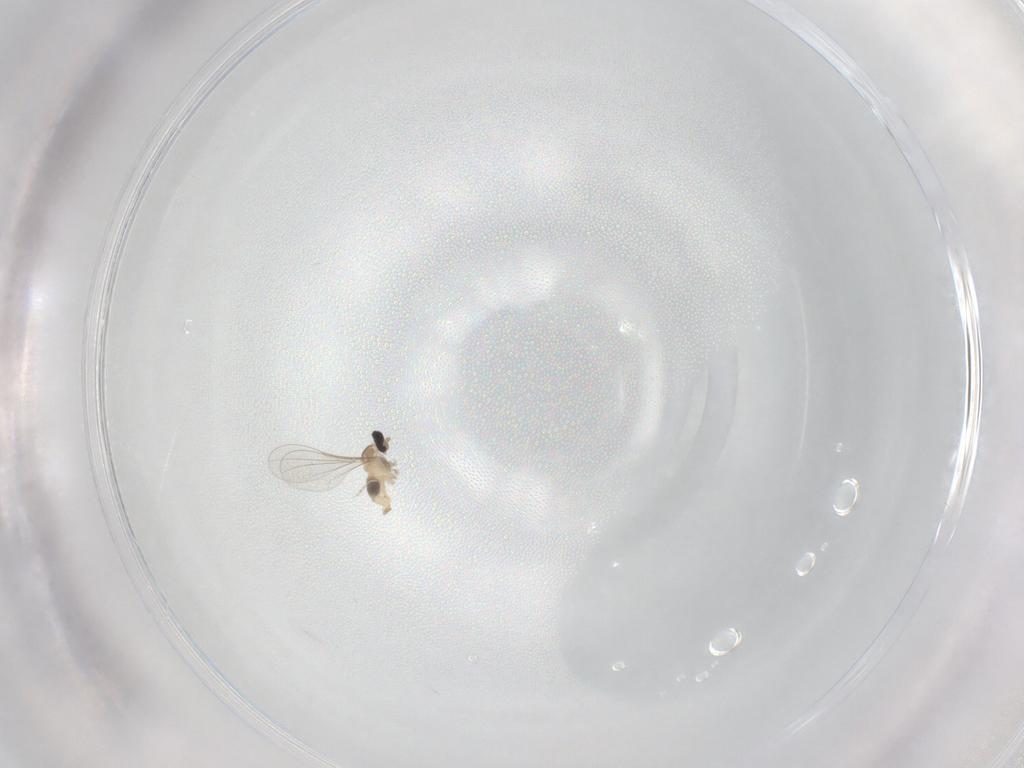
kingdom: Animalia
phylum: Arthropoda
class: Insecta
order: Diptera
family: Cecidomyiidae
